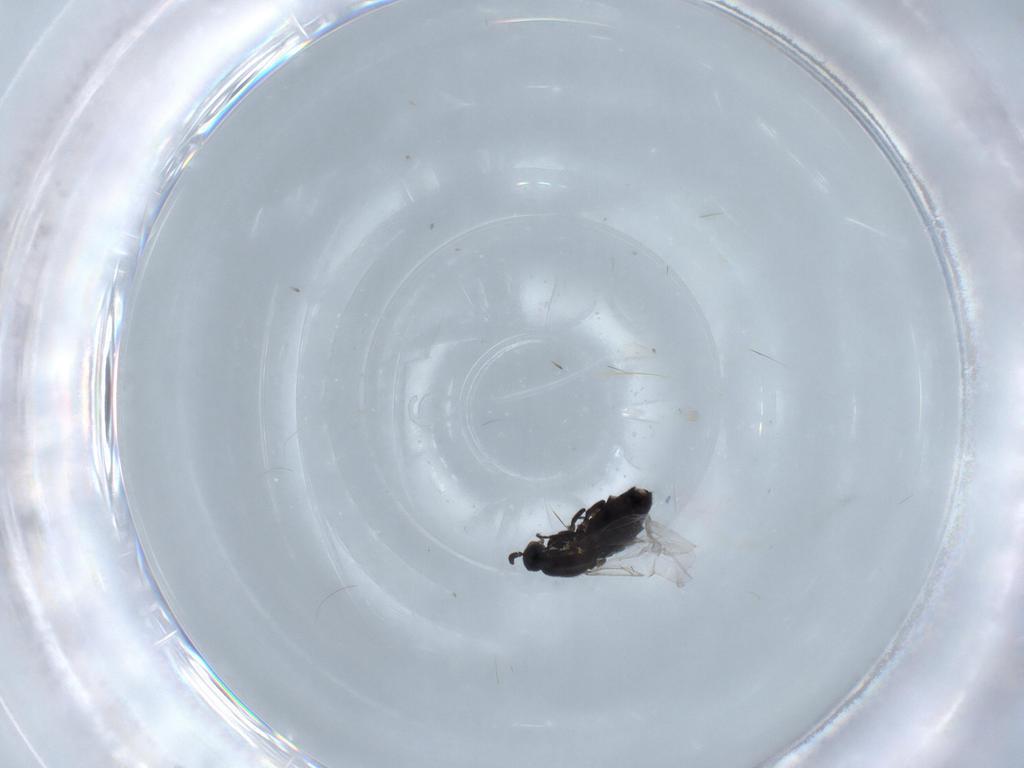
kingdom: Animalia
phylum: Arthropoda
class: Insecta
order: Diptera
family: Scatopsidae
